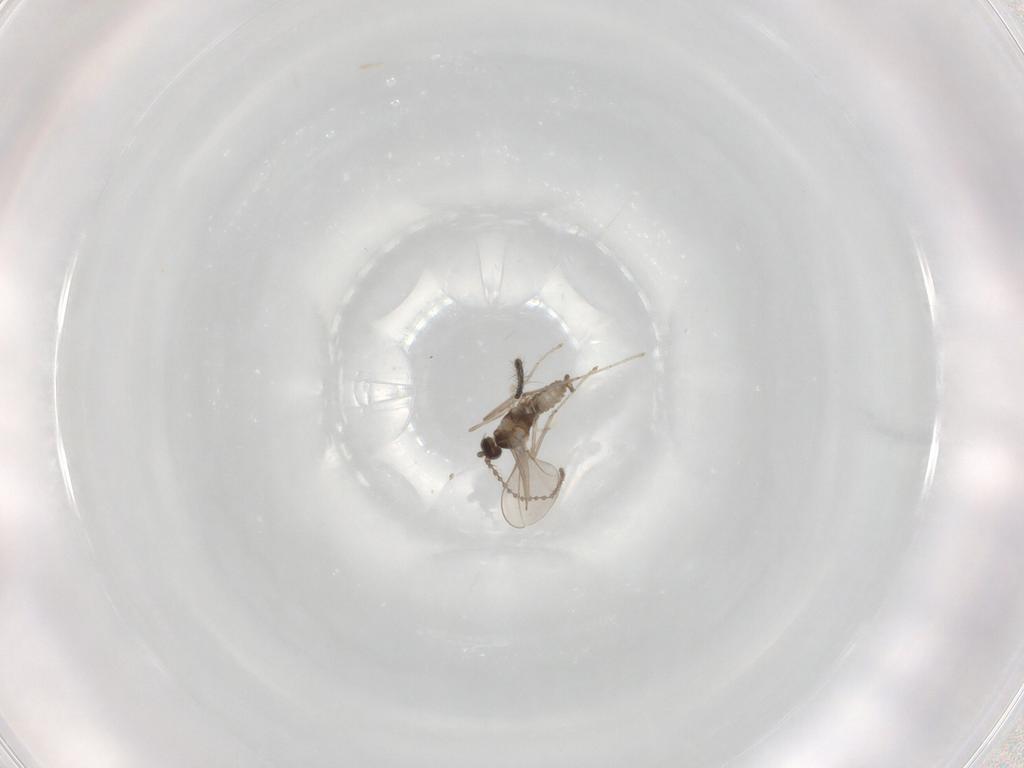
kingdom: Animalia
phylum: Arthropoda
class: Insecta
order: Diptera
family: Cecidomyiidae
